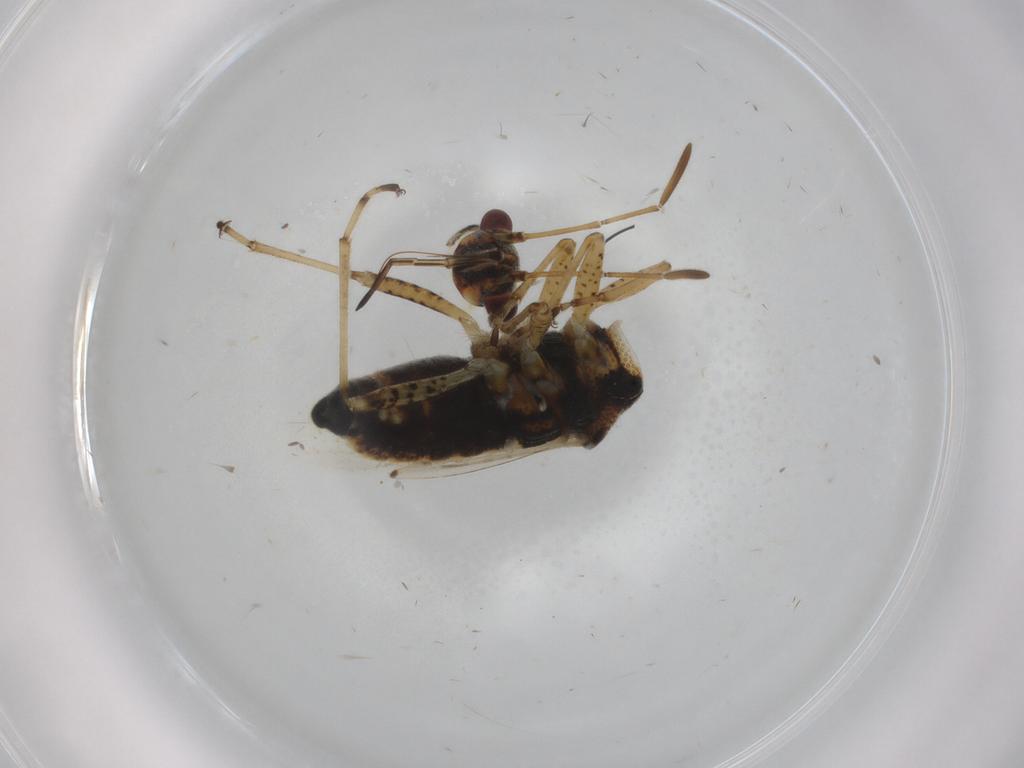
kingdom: Animalia
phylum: Arthropoda
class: Insecta
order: Hemiptera
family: Lygaeidae
